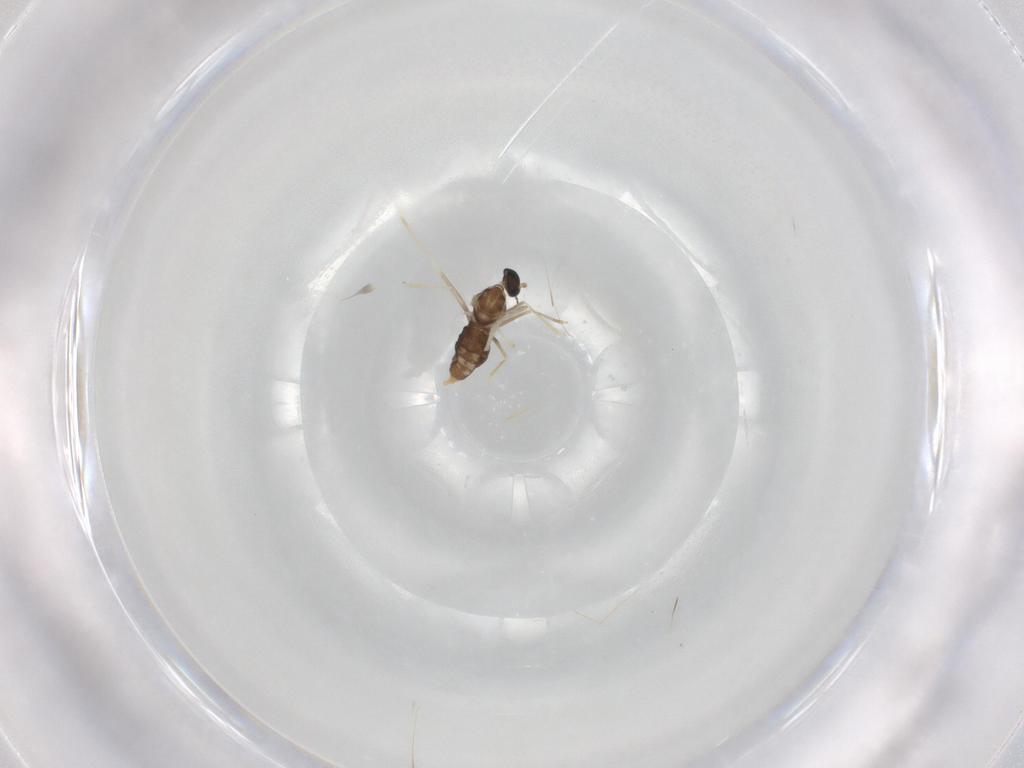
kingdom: Animalia
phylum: Arthropoda
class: Insecta
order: Diptera
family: Cecidomyiidae
